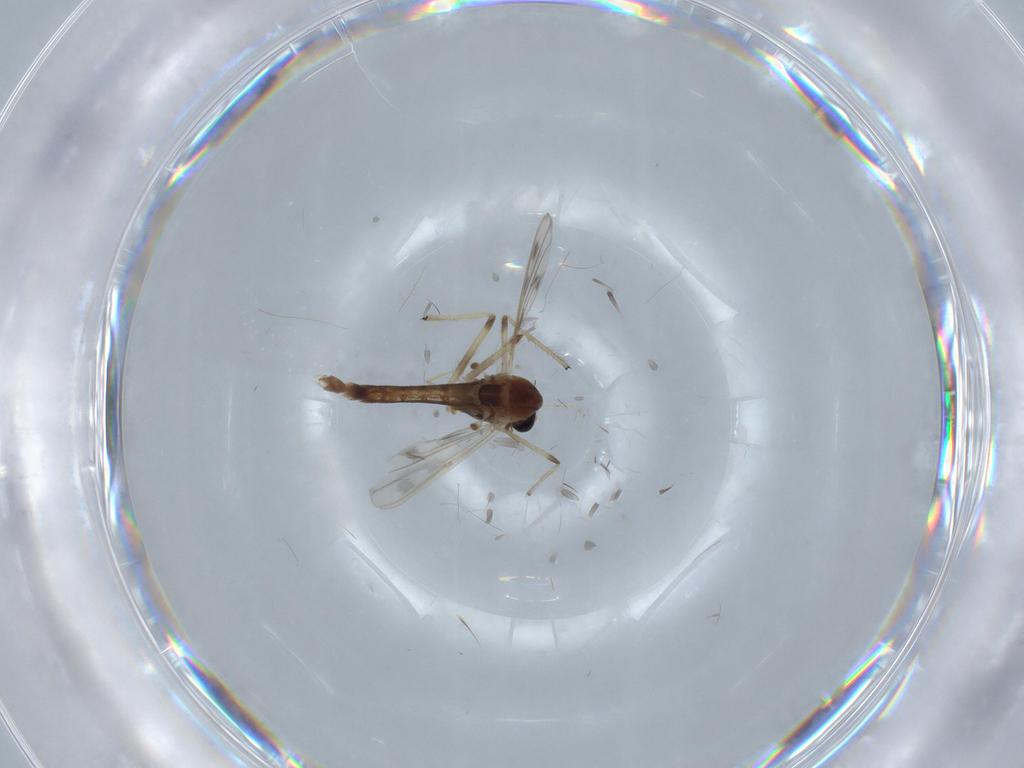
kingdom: Animalia
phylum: Arthropoda
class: Insecta
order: Diptera
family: Chironomidae
